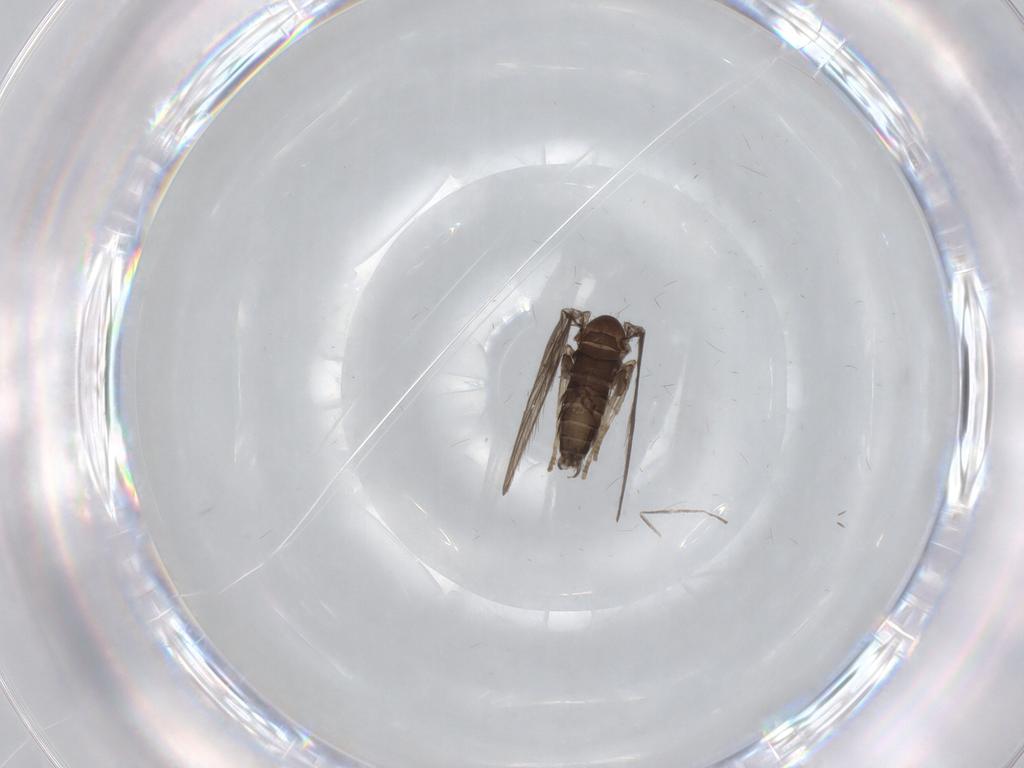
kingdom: Animalia
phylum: Arthropoda
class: Insecta
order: Diptera
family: Psychodidae
